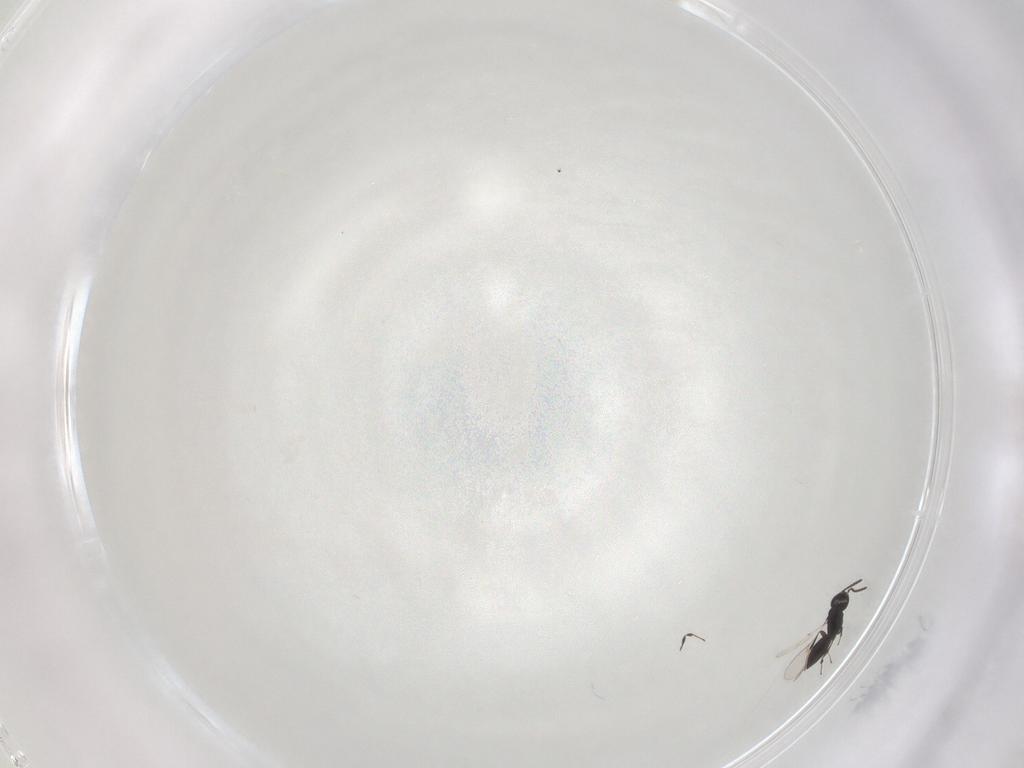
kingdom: Animalia
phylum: Arthropoda
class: Insecta
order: Hymenoptera
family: Scelionidae
